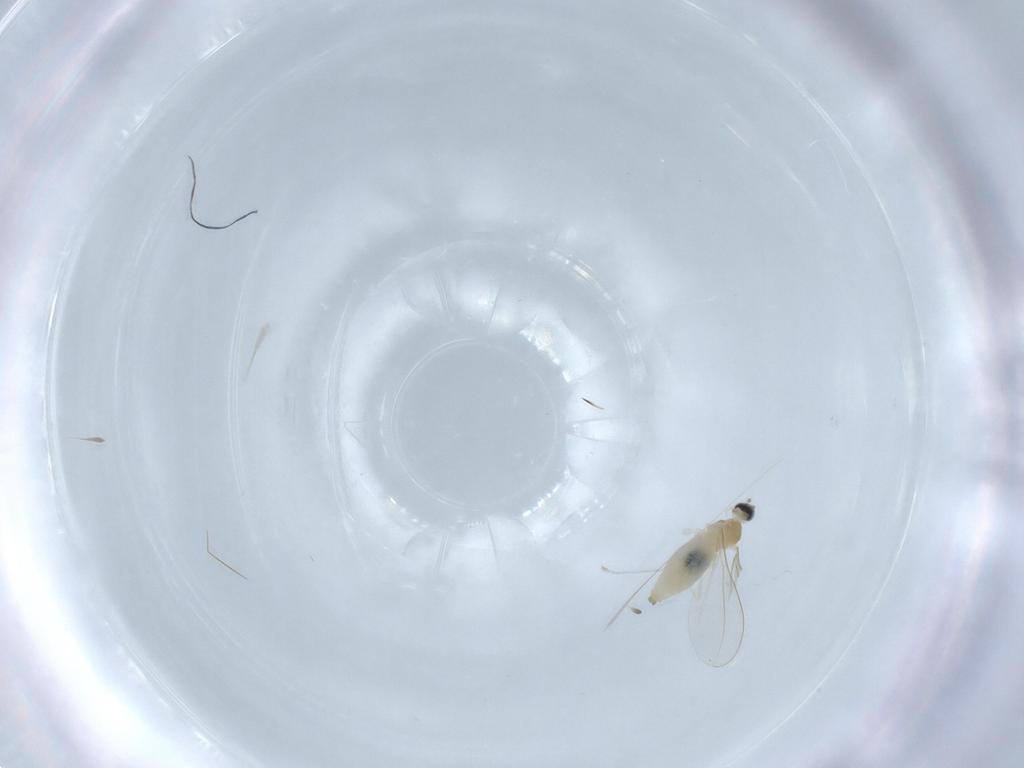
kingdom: Animalia
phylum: Arthropoda
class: Insecta
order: Diptera
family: Cecidomyiidae
